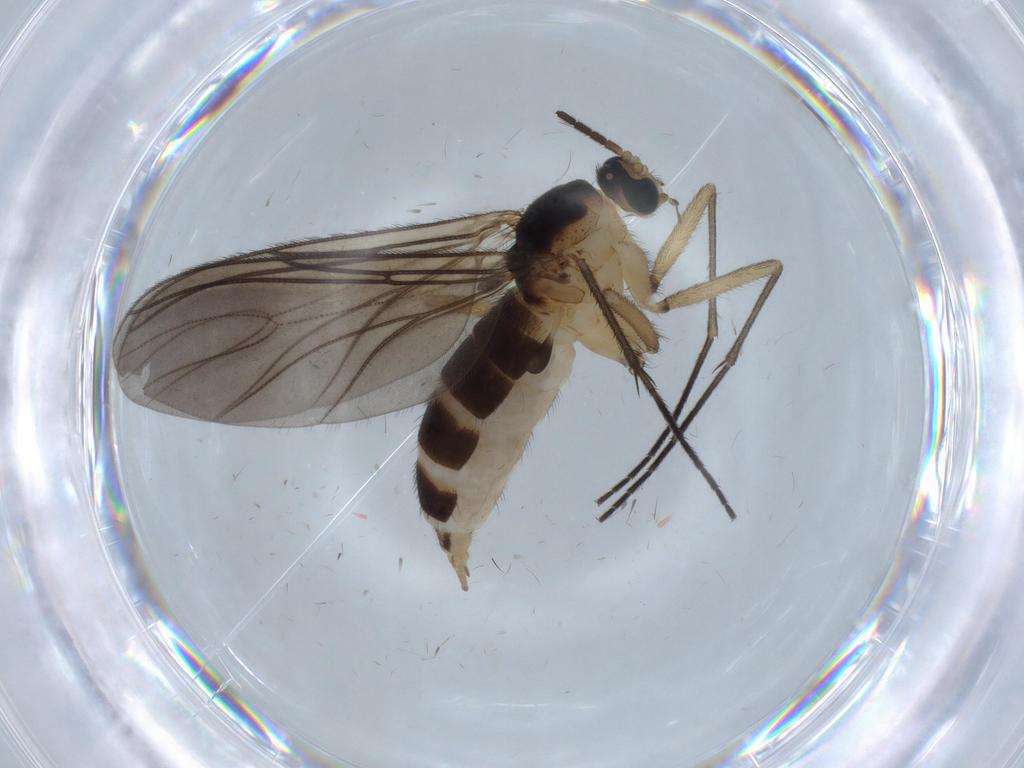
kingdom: Animalia
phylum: Arthropoda
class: Insecta
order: Diptera
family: Sciaridae
